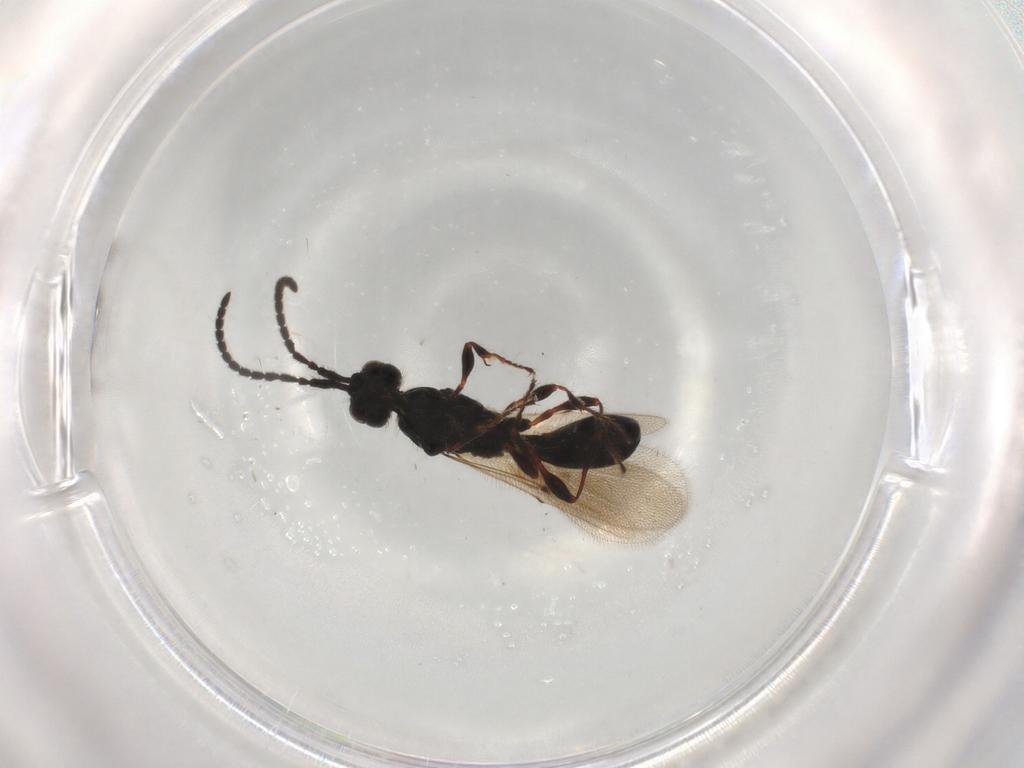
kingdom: Animalia
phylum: Arthropoda
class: Insecta
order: Hymenoptera
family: Diapriidae
